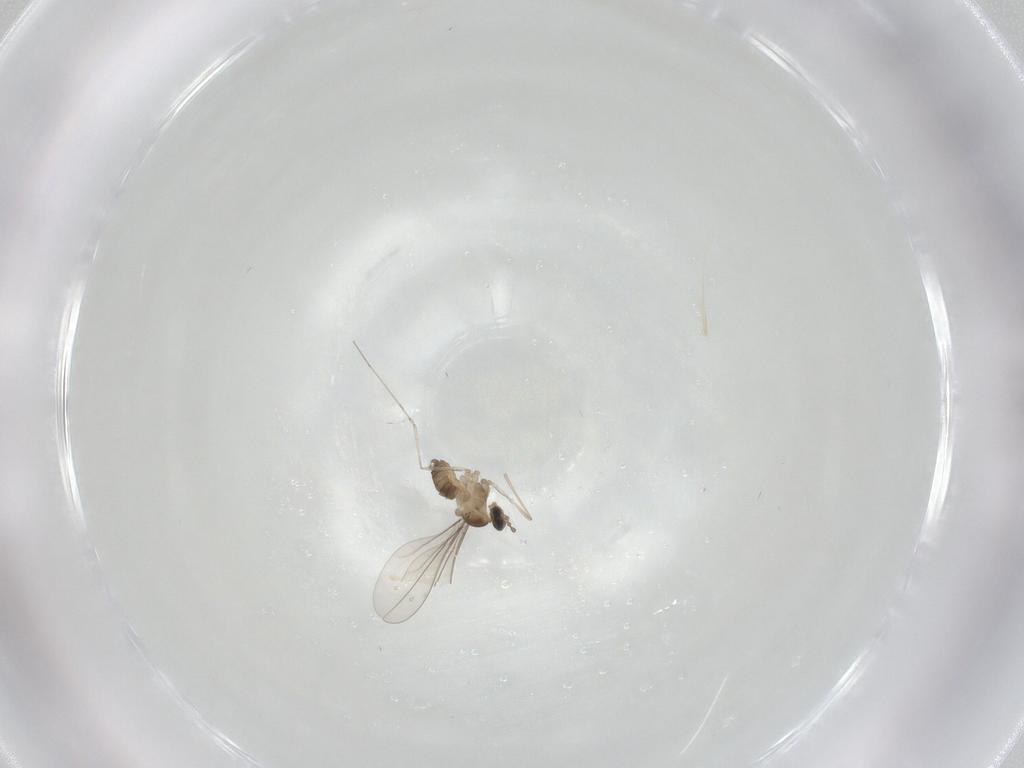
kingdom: Animalia
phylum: Arthropoda
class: Insecta
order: Diptera
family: Cecidomyiidae
